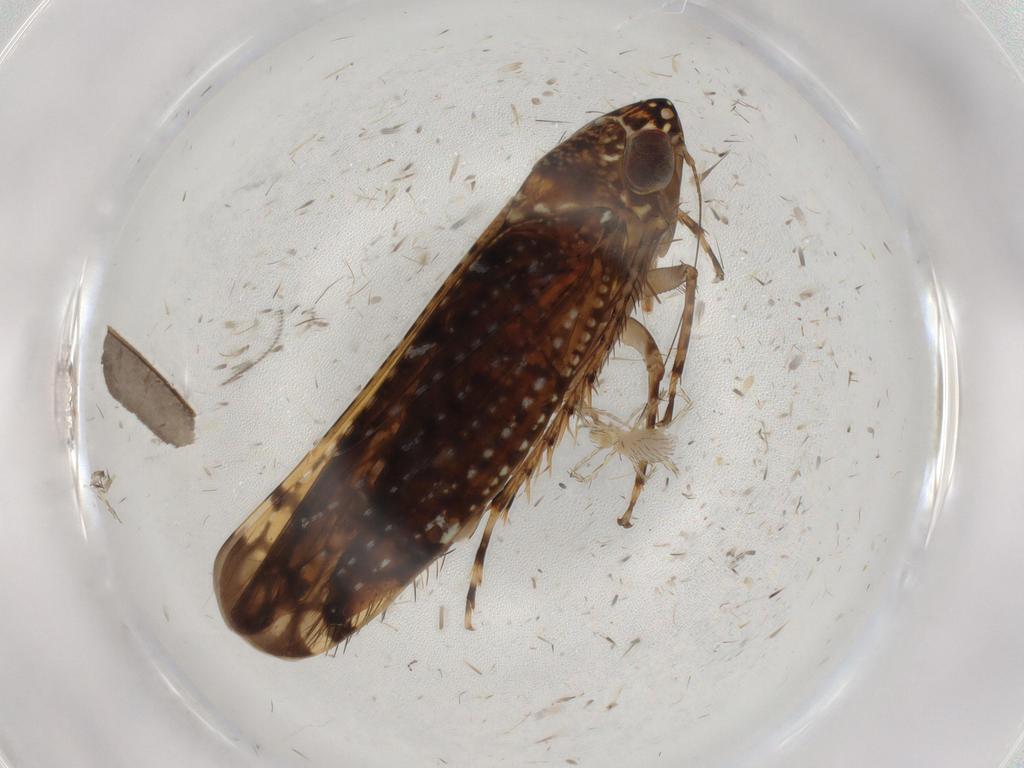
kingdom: Animalia
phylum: Arthropoda
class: Insecta
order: Hemiptera
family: Cicadellidae
